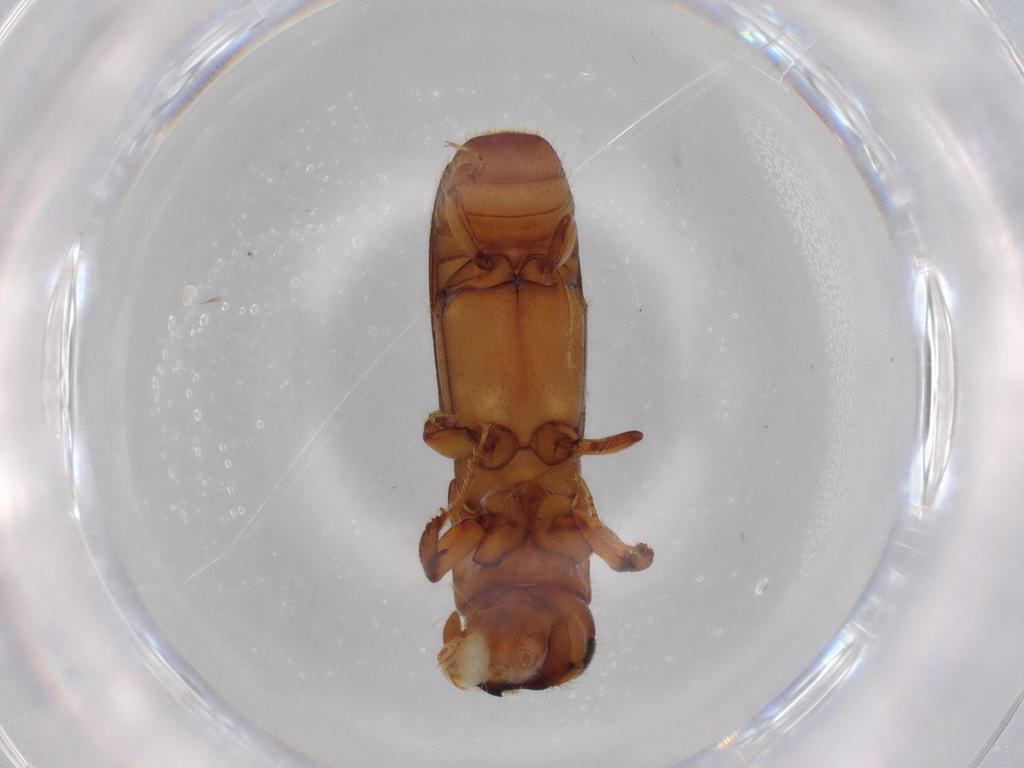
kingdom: Animalia
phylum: Arthropoda
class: Insecta
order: Coleoptera
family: Curculionidae
